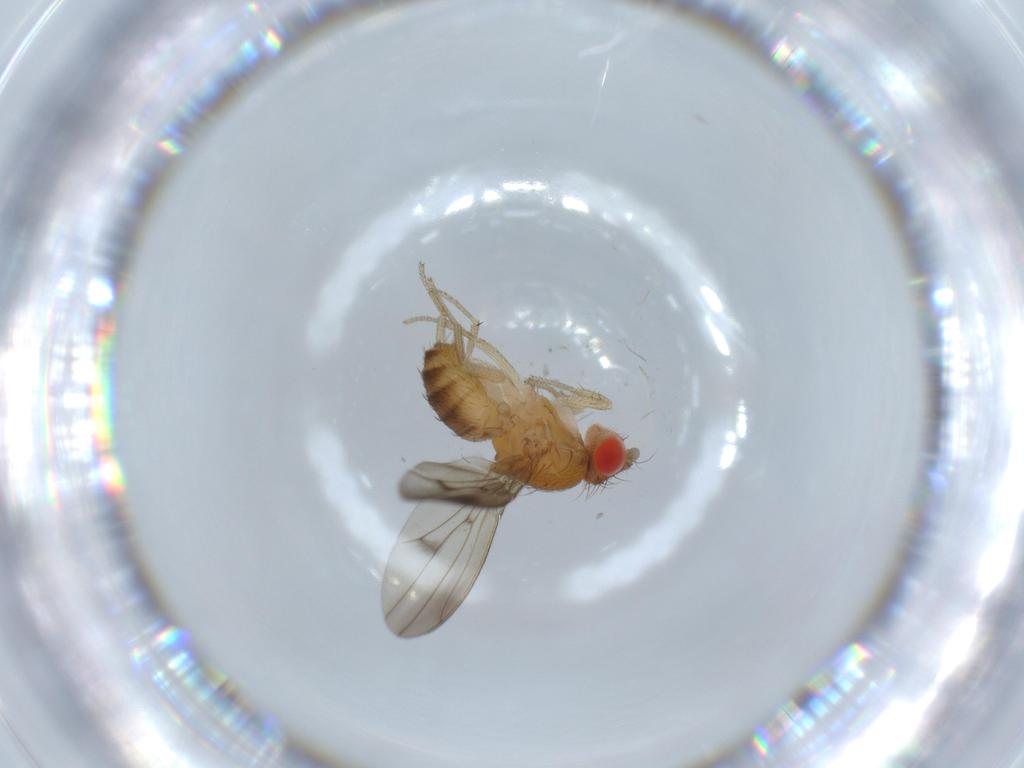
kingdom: Animalia
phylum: Arthropoda
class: Insecta
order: Diptera
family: Drosophilidae
